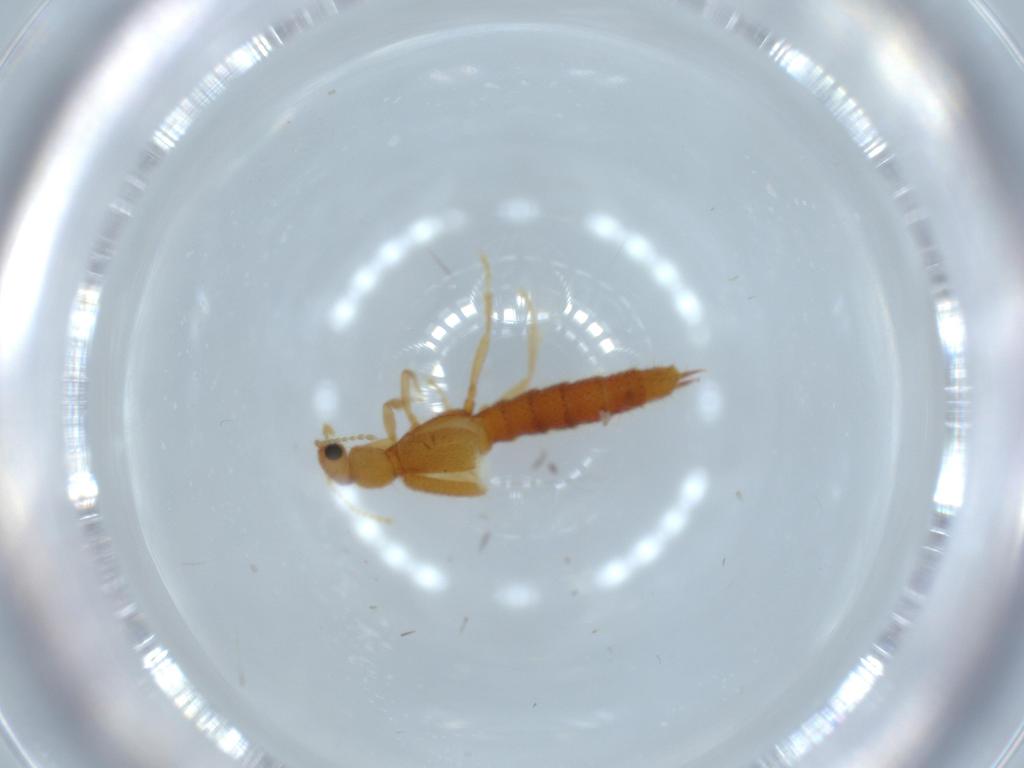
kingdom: Animalia
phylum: Arthropoda
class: Insecta
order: Coleoptera
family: Staphylinidae
